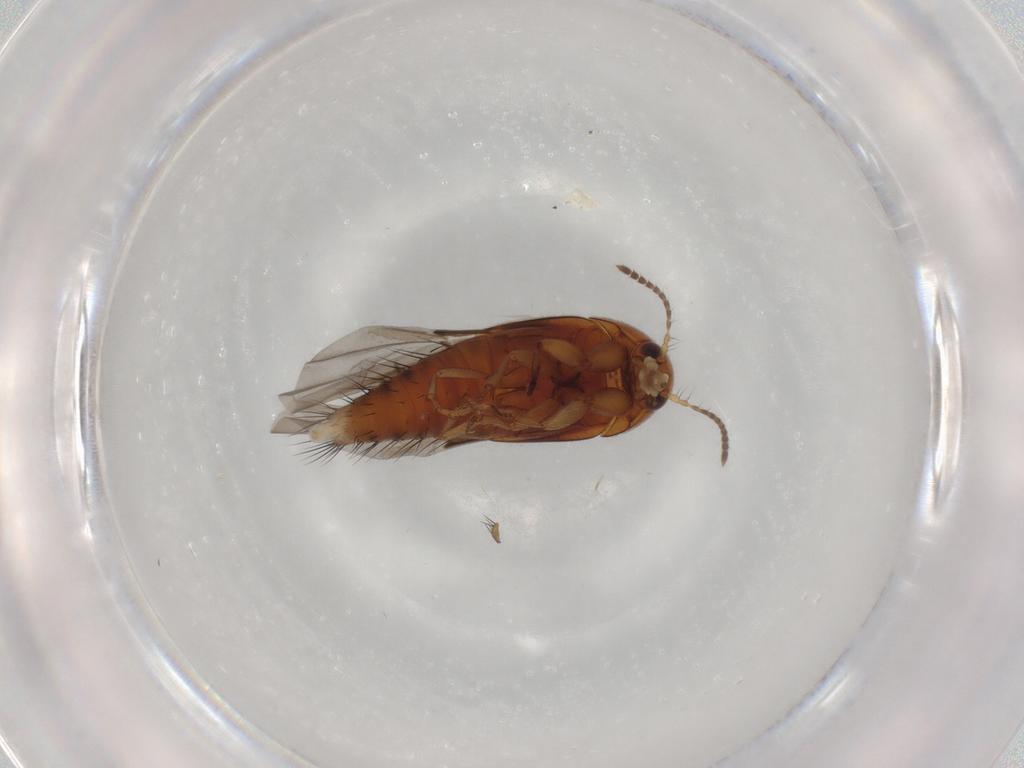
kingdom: Animalia
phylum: Arthropoda
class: Insecta
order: Coleoptera
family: Staphylinidae
